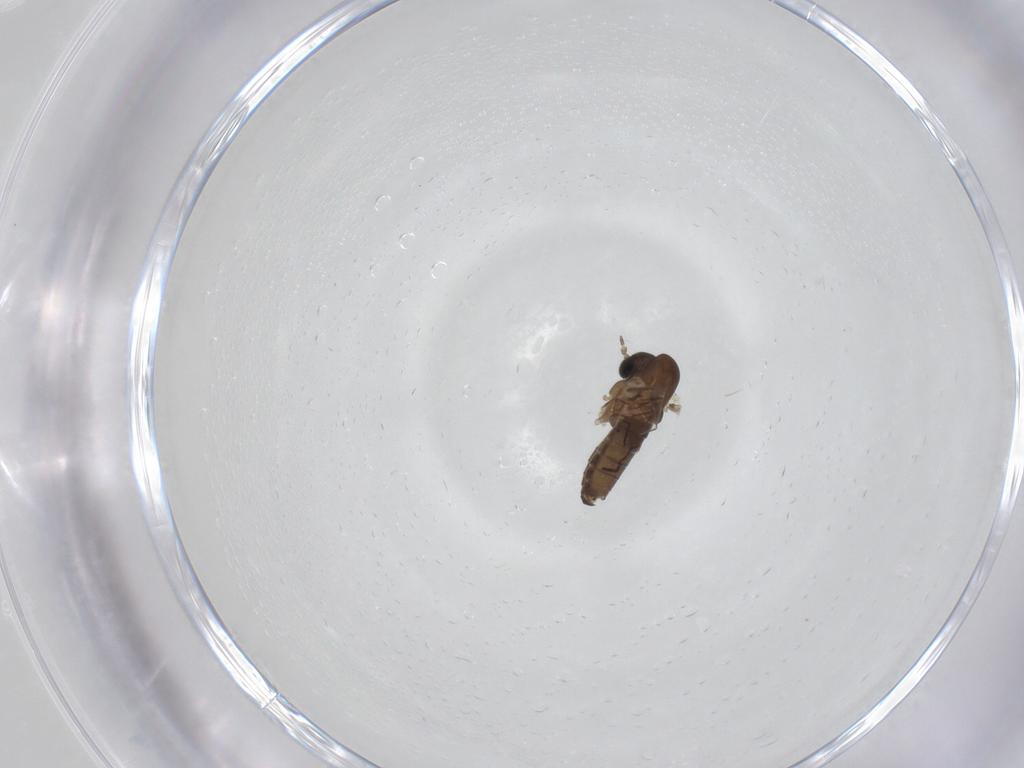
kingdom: Animalia
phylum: Arthropoda
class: Insecta
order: Diptera
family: Psychodidae
